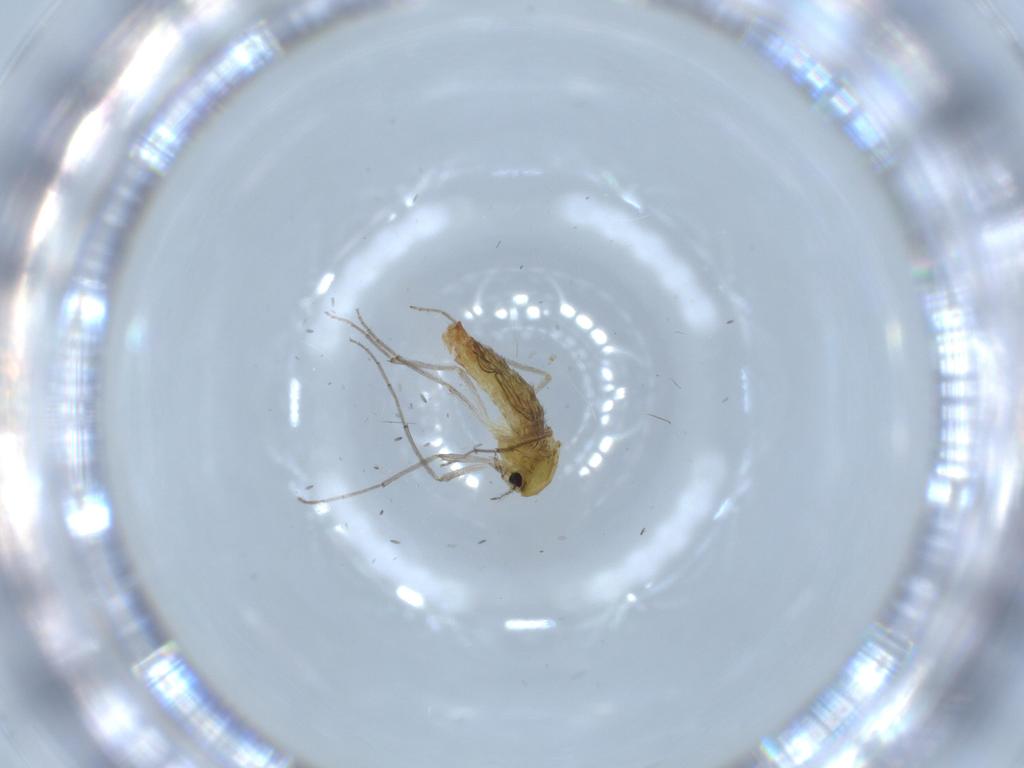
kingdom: Animalia
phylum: Arthropoda
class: Insecta
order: Diptera
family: Chironomidae
